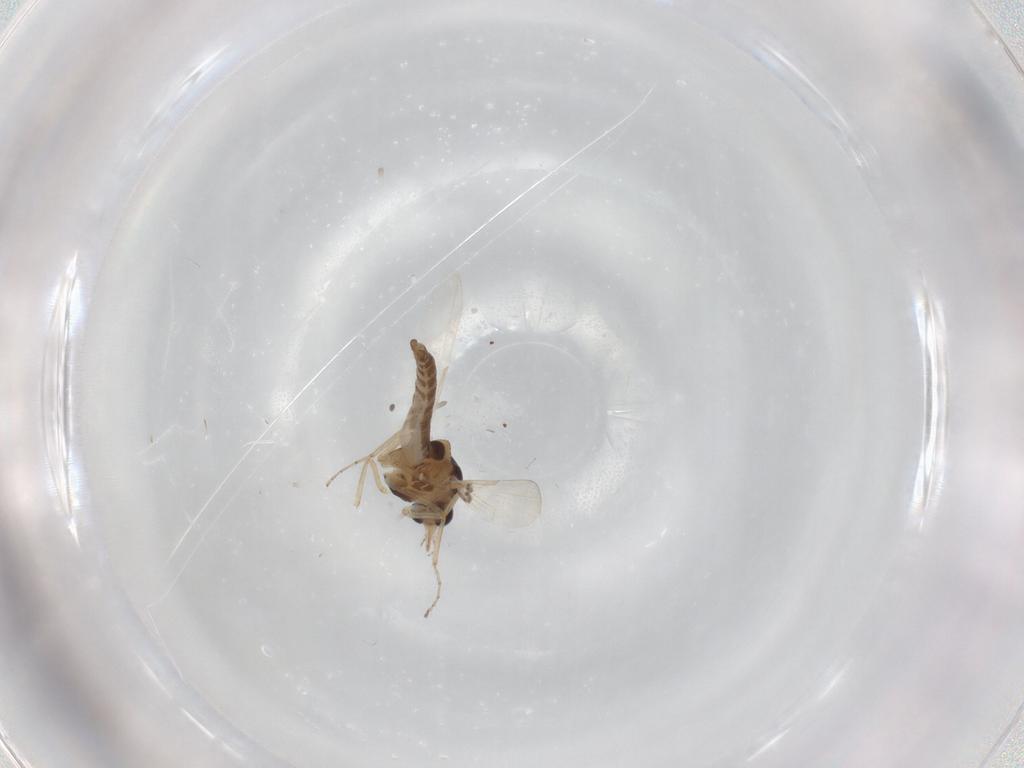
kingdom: Animalia
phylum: Arthropoda
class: Insecta
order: Diptera
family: Ceratopogonidae
